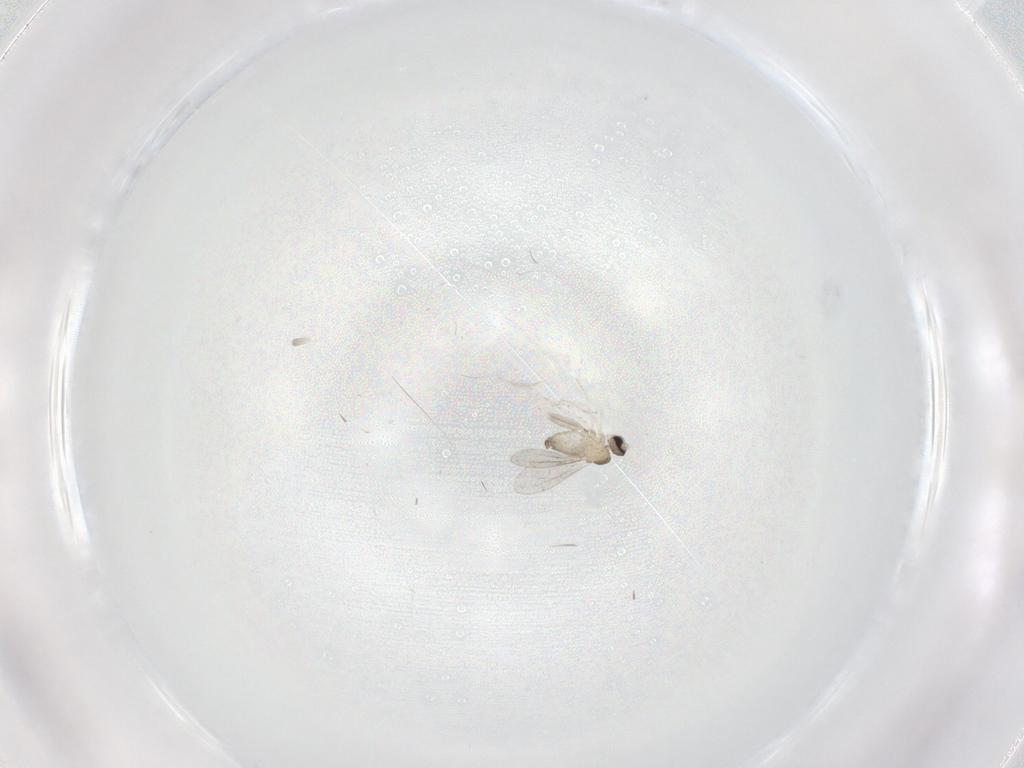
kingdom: Animalia
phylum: Arthropoda
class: Insecta
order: Diptera
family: Cecidomyiidae
